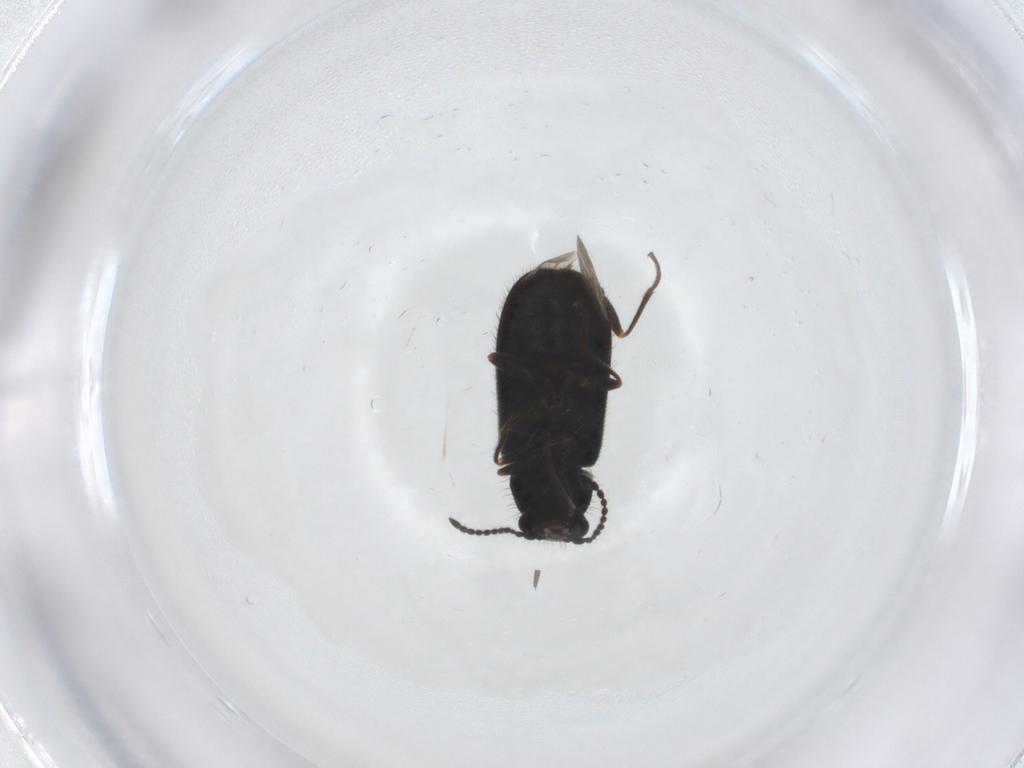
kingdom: Animalia
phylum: Arthropoda
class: Insecta
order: Coleoptera
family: Melyridae
